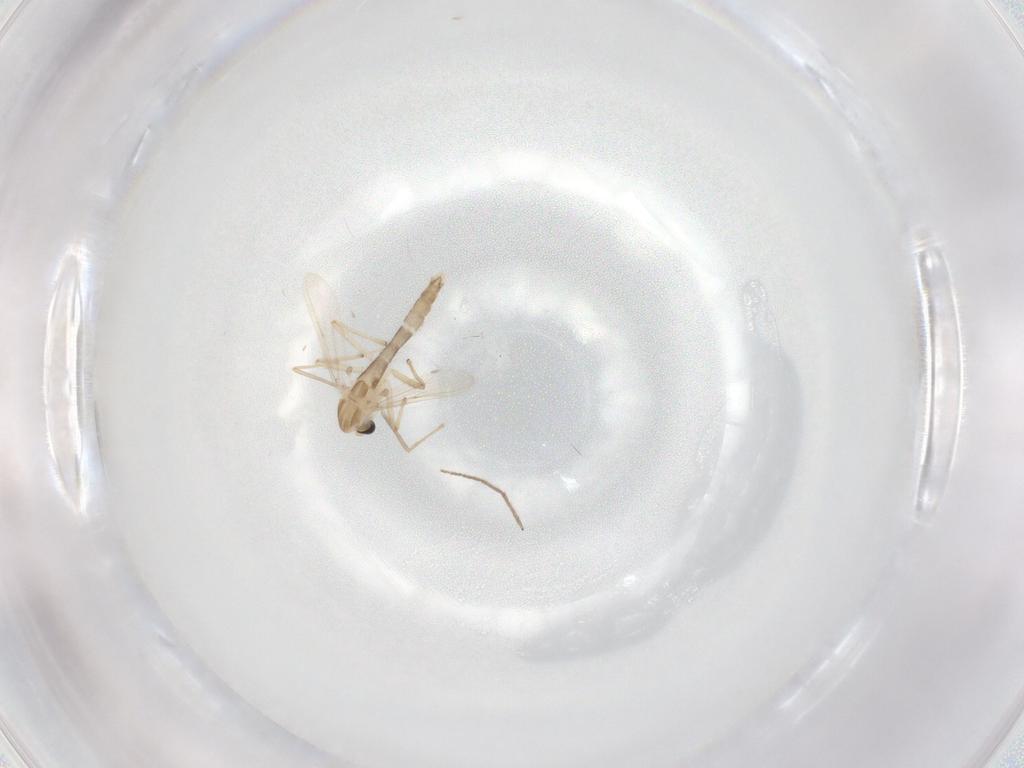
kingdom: Animalia
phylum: Arthropoda
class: Insecta
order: Diptera
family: Chironomidae
